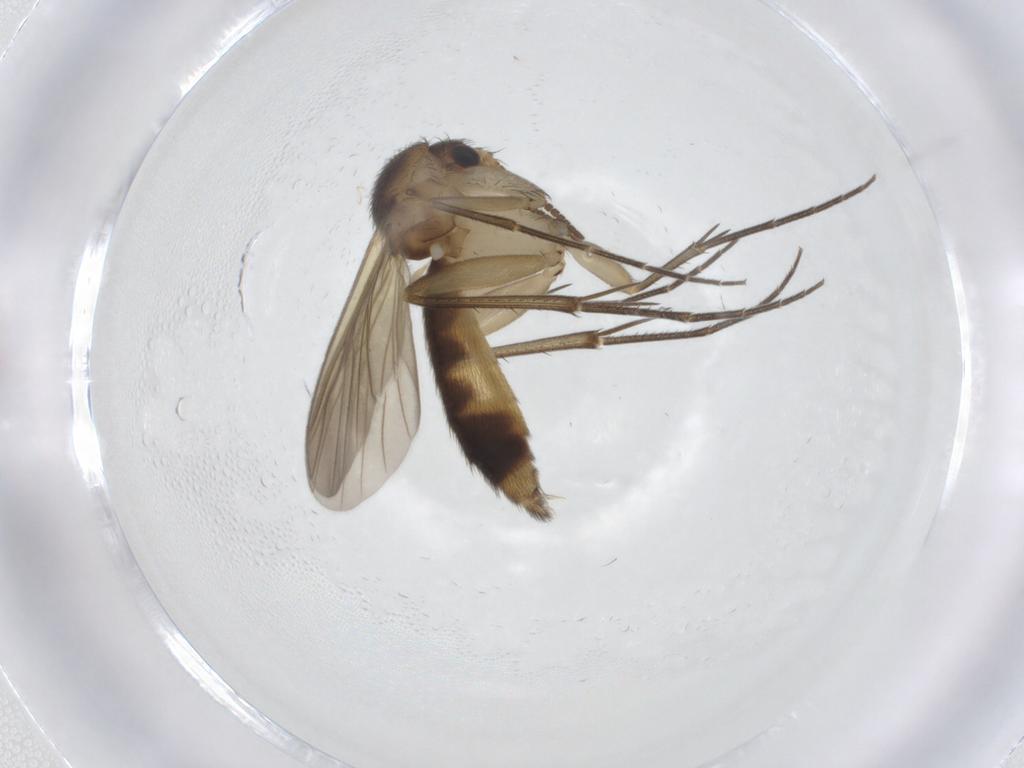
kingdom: Animalia
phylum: Arthropoda
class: Insecta
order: Diptera
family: Mycetophilidae
